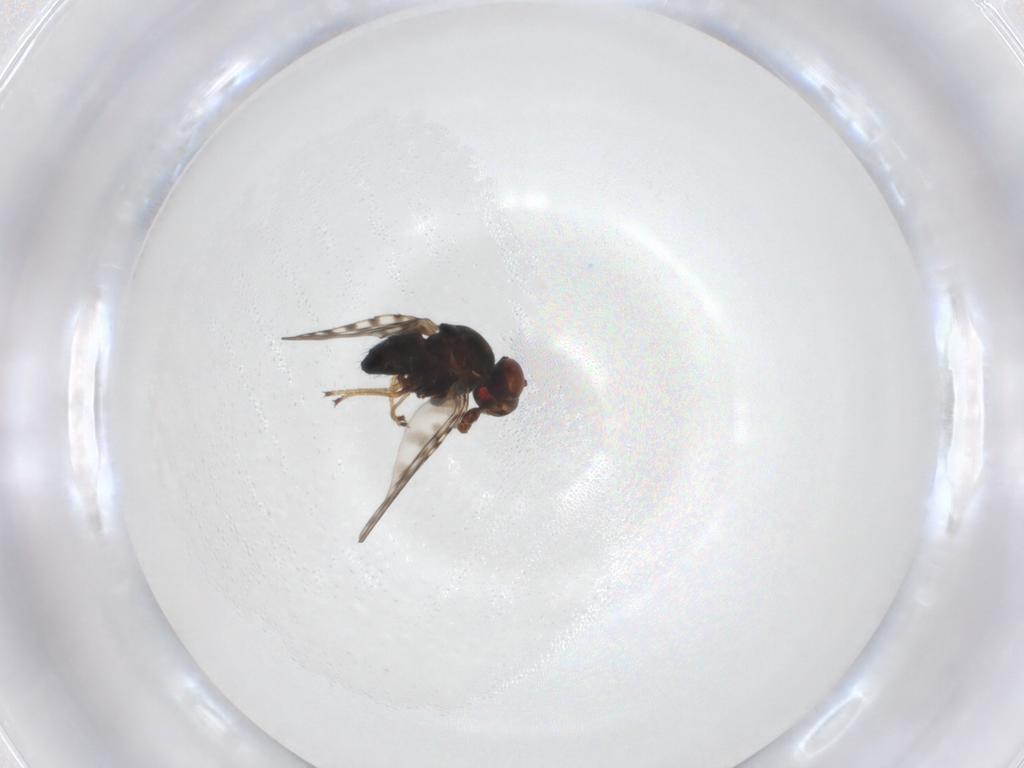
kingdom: Animalia
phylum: Arthropoda
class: Insecta
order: Diptera
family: Ephydridae
